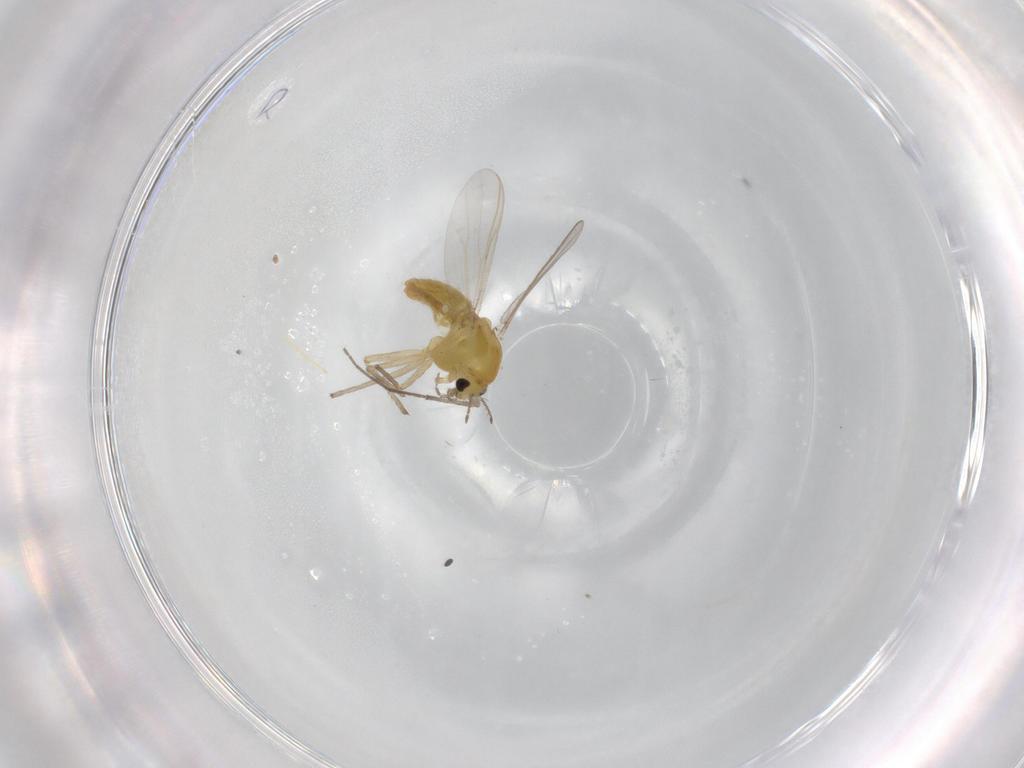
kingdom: Animalia
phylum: Arthropoda
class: Insecta
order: Diptera
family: Chironomidae
